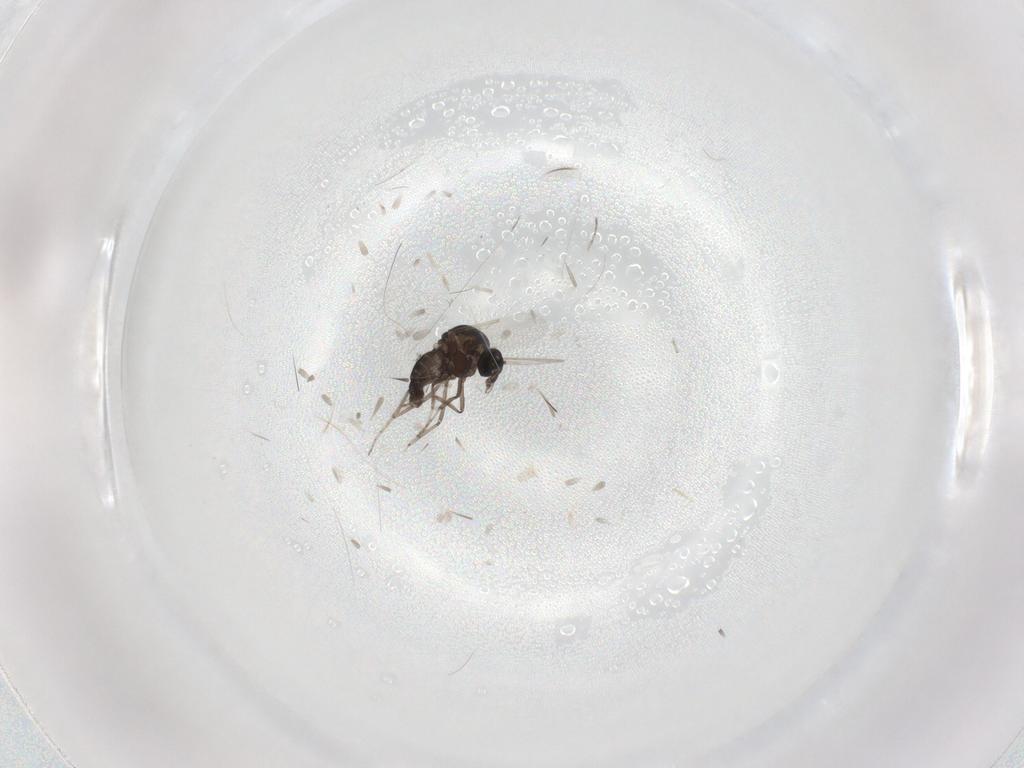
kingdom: Animalia
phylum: Arthropoda
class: Insecta
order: Diptera
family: Ceratopogonidae
